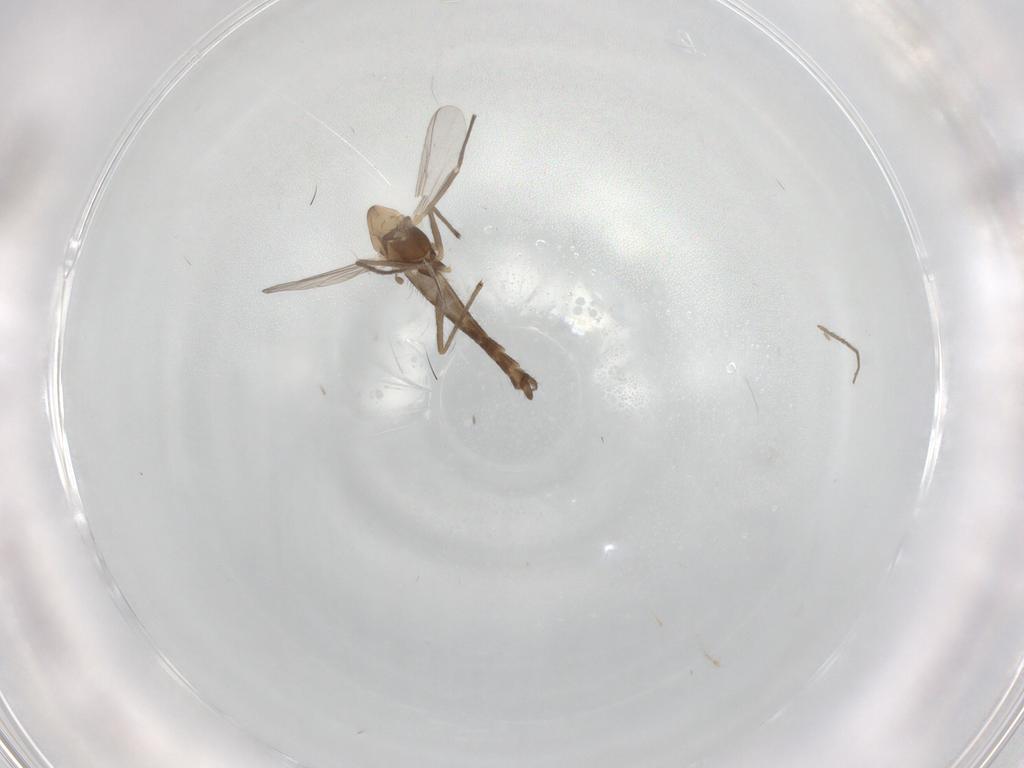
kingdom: Animalia
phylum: Arthropoda
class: Insecta
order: Diptera
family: Chironomidae
